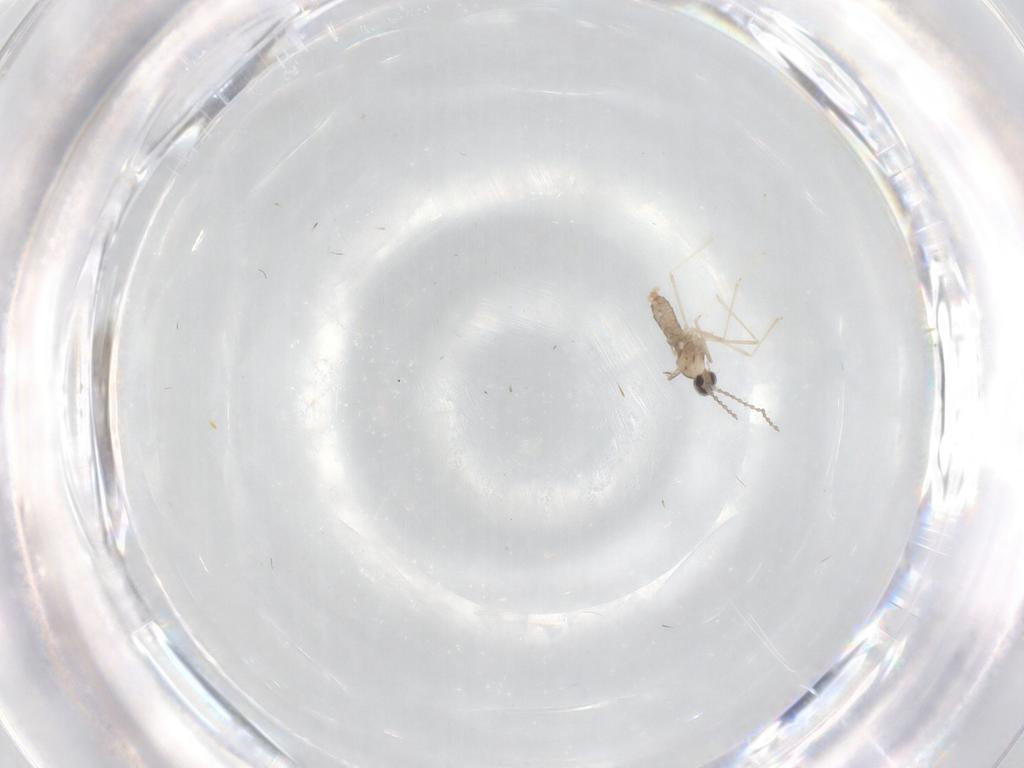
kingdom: Animalia
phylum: Arthropoda
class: Insecta
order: Diptera
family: Cecidomyiidae
